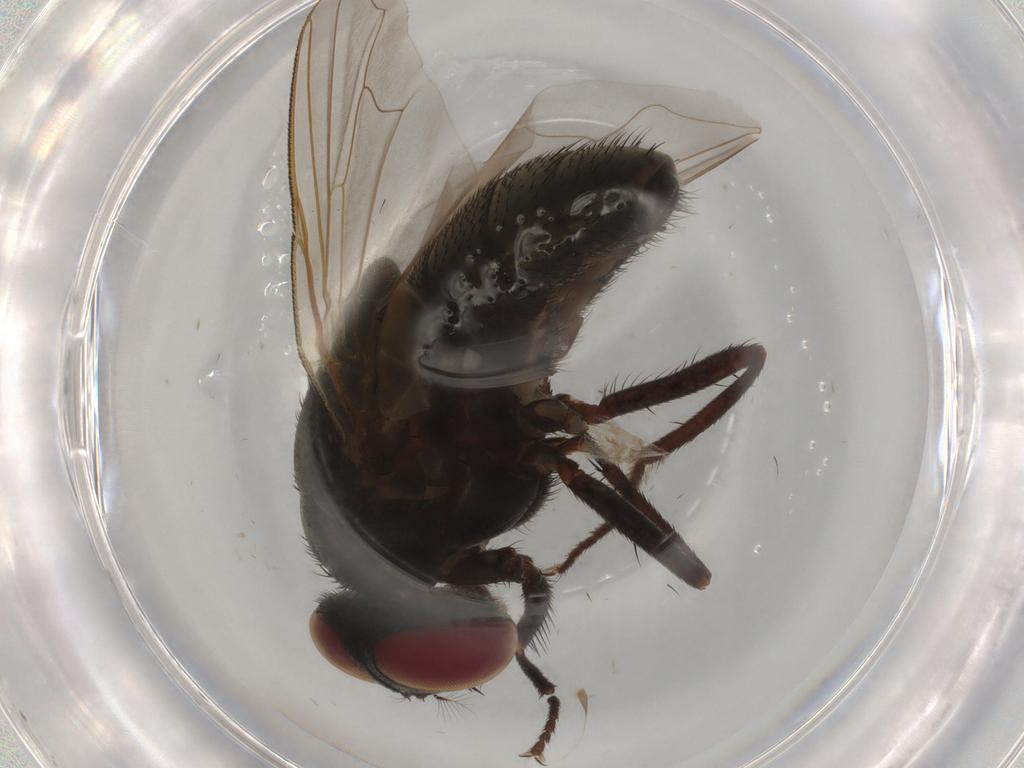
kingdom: Animalia
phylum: Arthropoda
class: Insecta
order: Diptera
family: Muscidae
